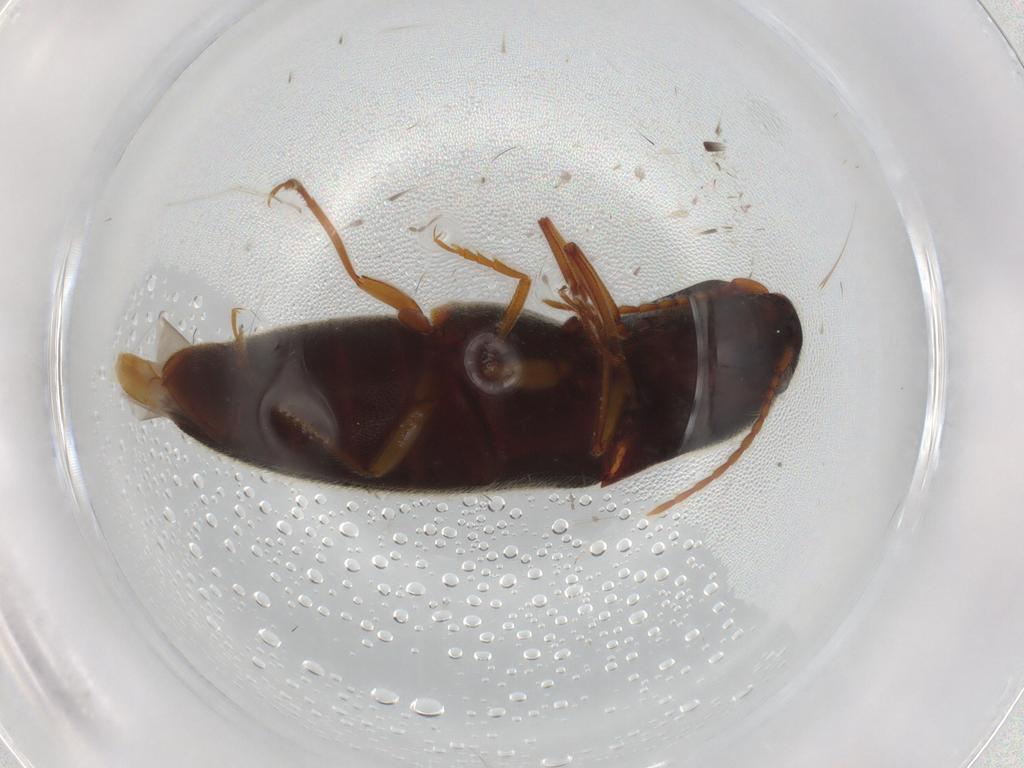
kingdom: Animalia
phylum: Arthropoda
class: Insecta
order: Coleoptera
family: Elateridae
